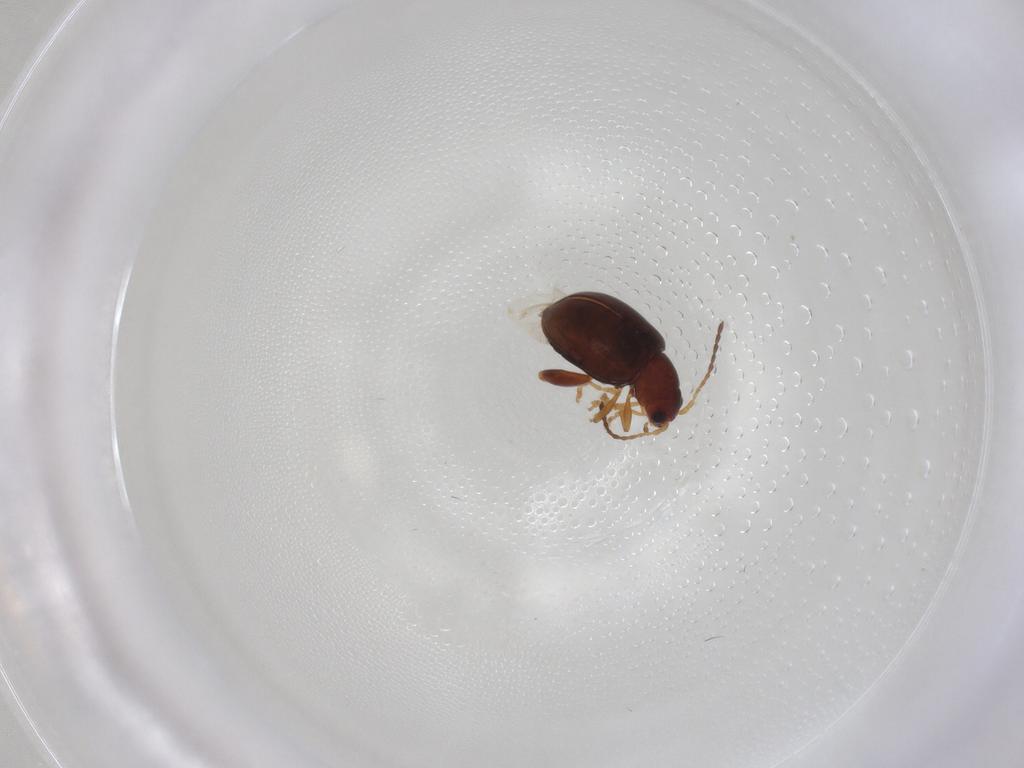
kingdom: Animalia
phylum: Arthropoda
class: Insecta
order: Coleoptera
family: Chrysomelidae
